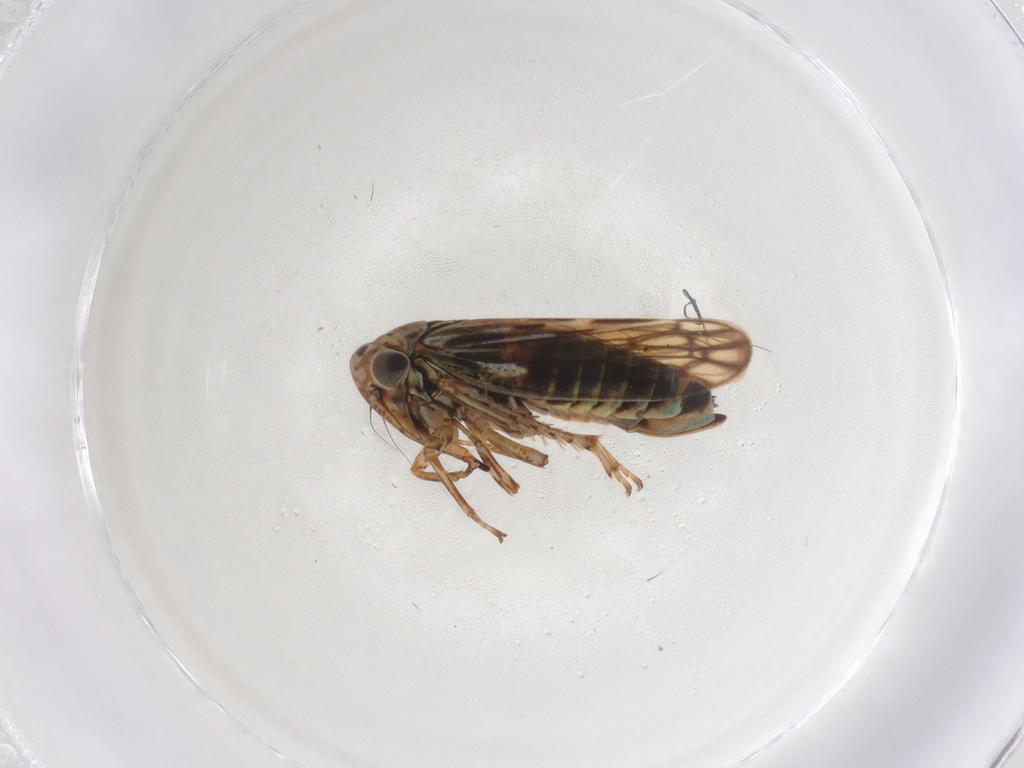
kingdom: Animalia
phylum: Arthropoda
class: Insecta
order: Hemiptera
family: Cicadellidae
